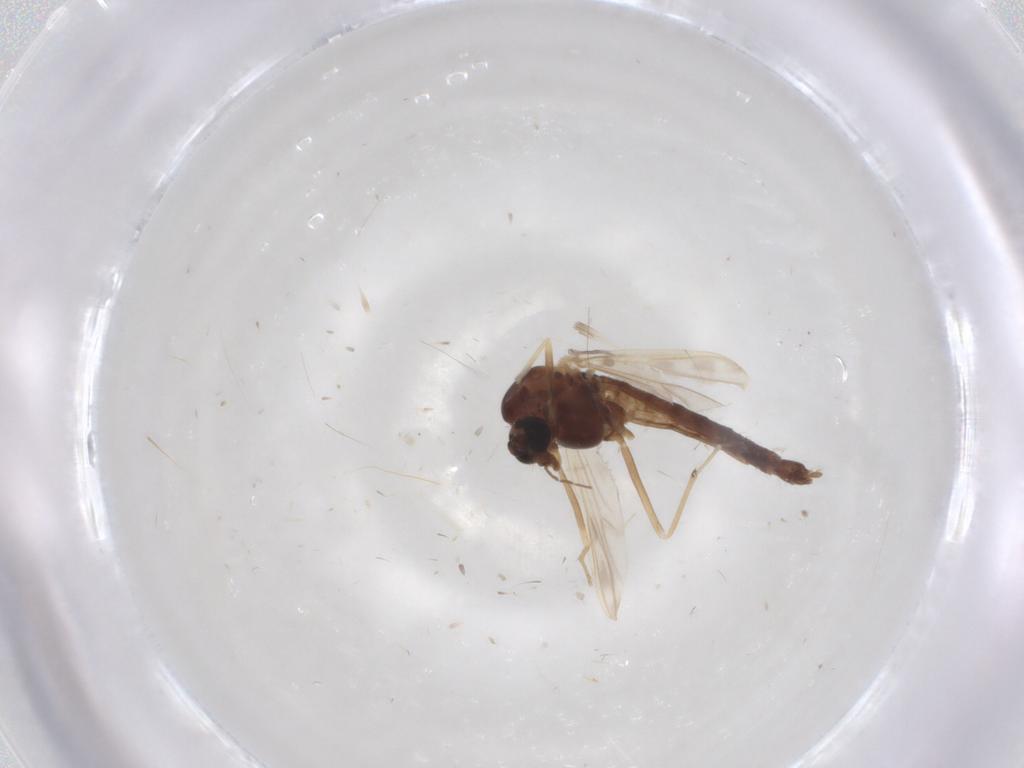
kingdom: Animalia
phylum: Arthropoda
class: Insecta
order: Diptera
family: Chironomidae
